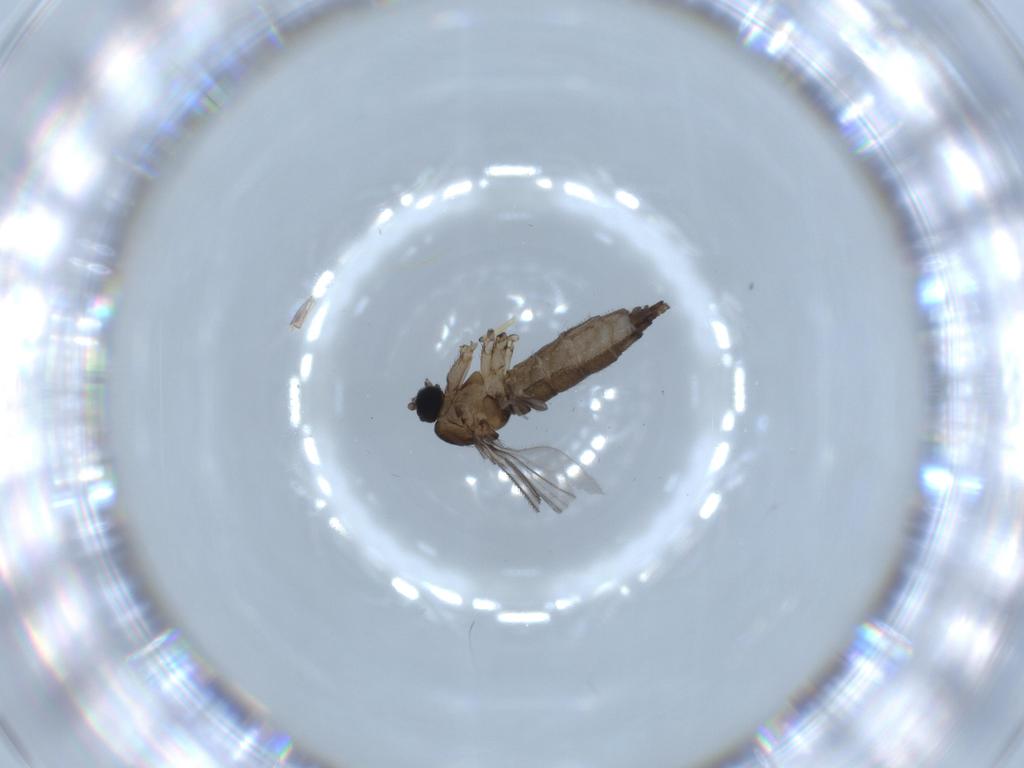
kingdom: Animalia
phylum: Arthropoda
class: Insecta
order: Diptera
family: Sciaridae
